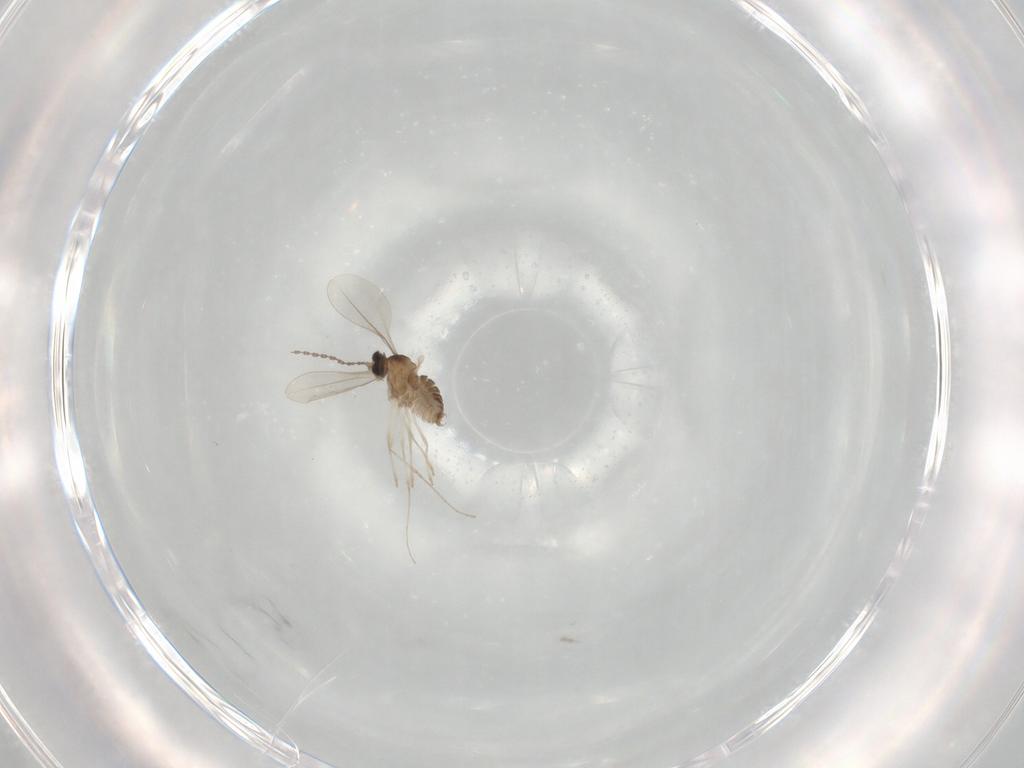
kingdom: Animalia
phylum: Arthropoda
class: Insecta
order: Diptera
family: Cecidomyiidae
